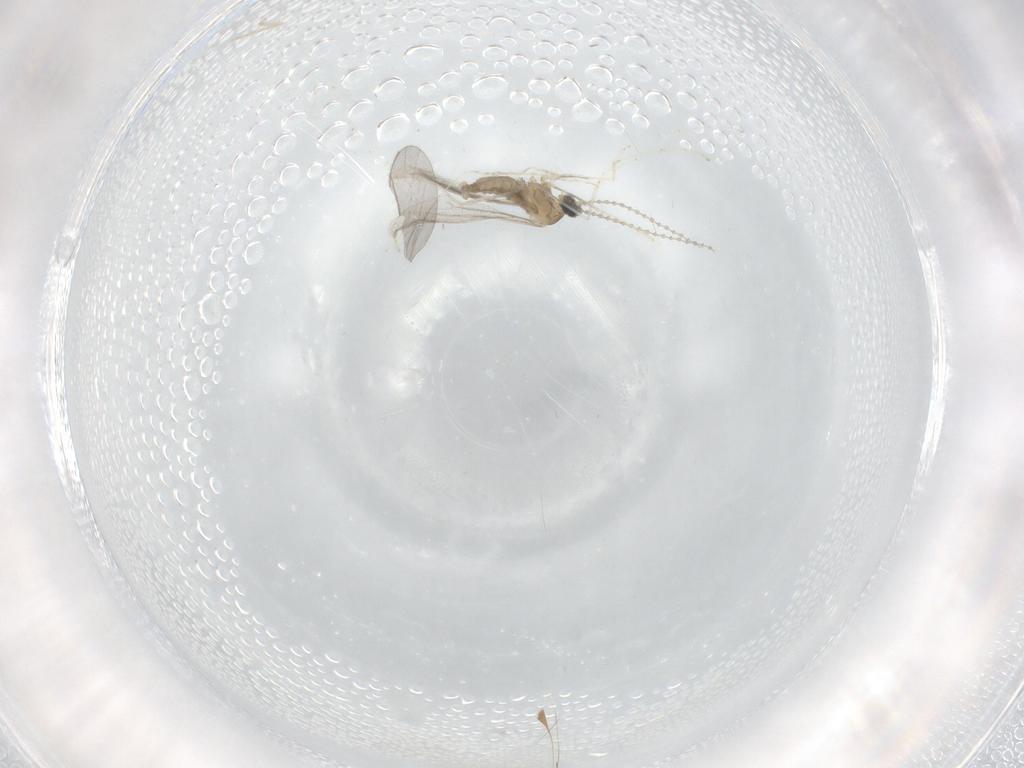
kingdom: Animalia
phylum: Arthropoda
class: Insecta
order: Diptera
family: Cecidomyiidae
